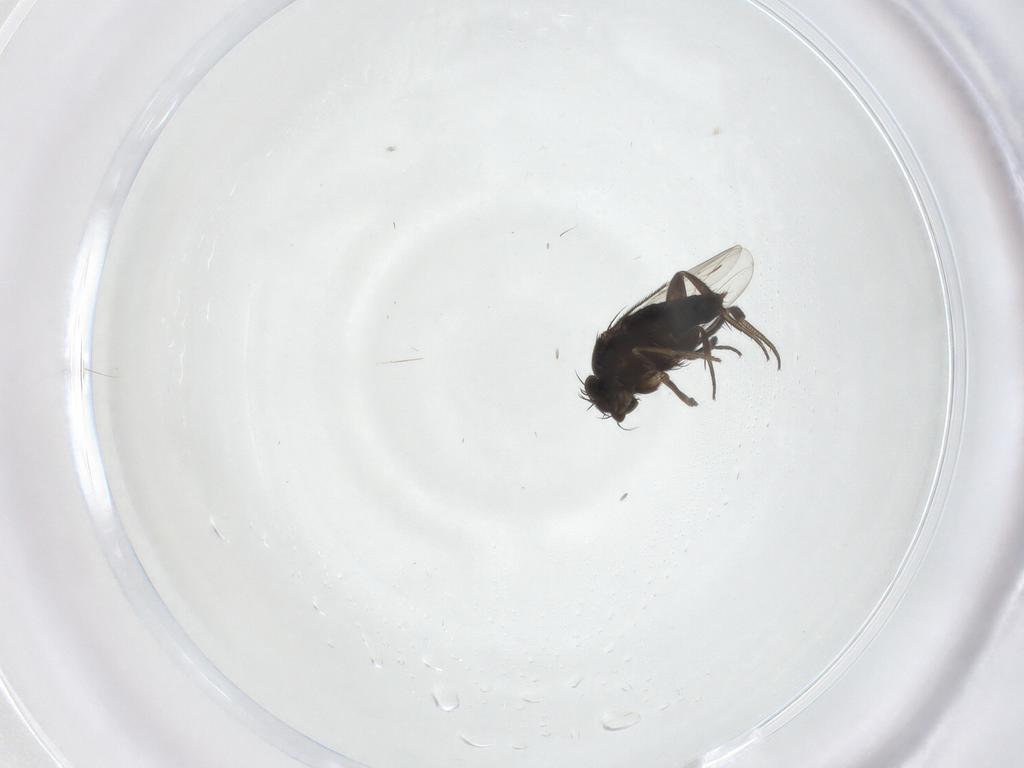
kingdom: Animalia
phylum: Arthropoda
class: Insecta
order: Diptera
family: Phoridae
